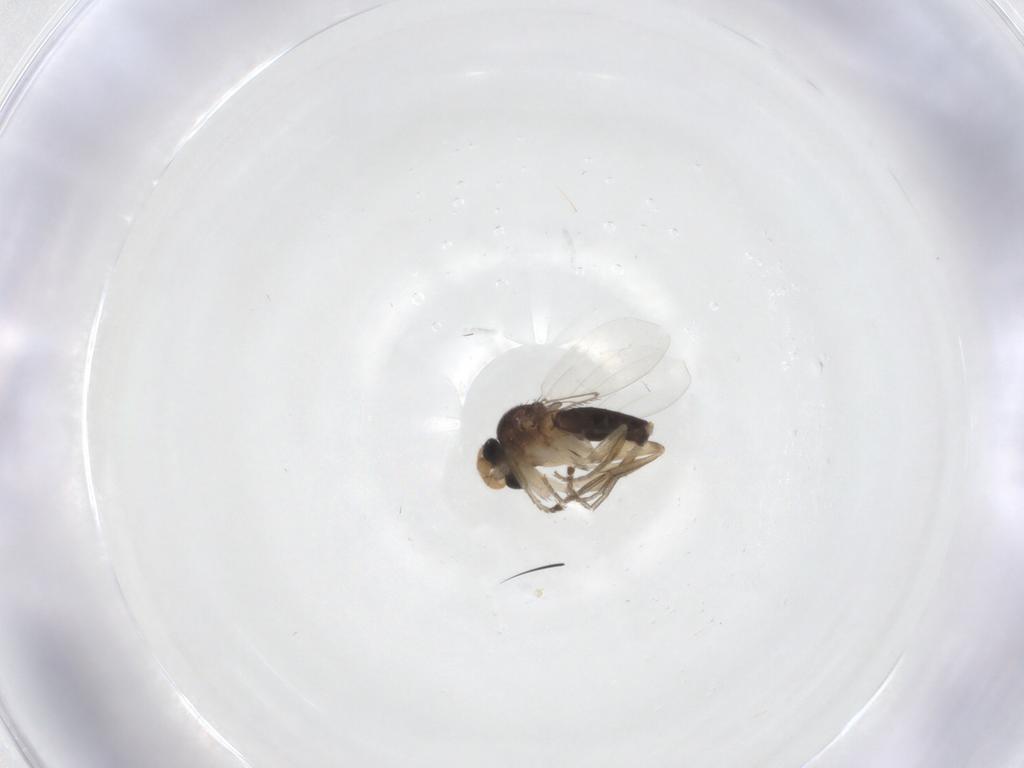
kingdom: Animalia
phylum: Arthropoda
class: Insecta
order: Diptera
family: Phoridae
